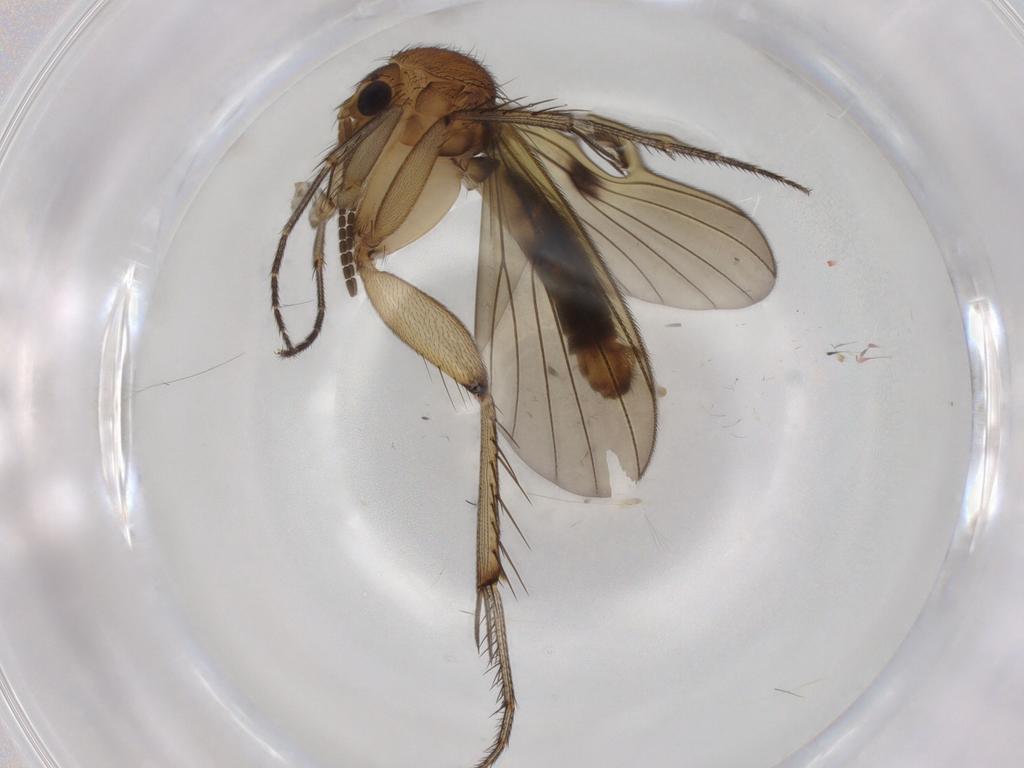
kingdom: Animalia
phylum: Arthropoda
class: Insecta
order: Diptera
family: Mycetophilidae
